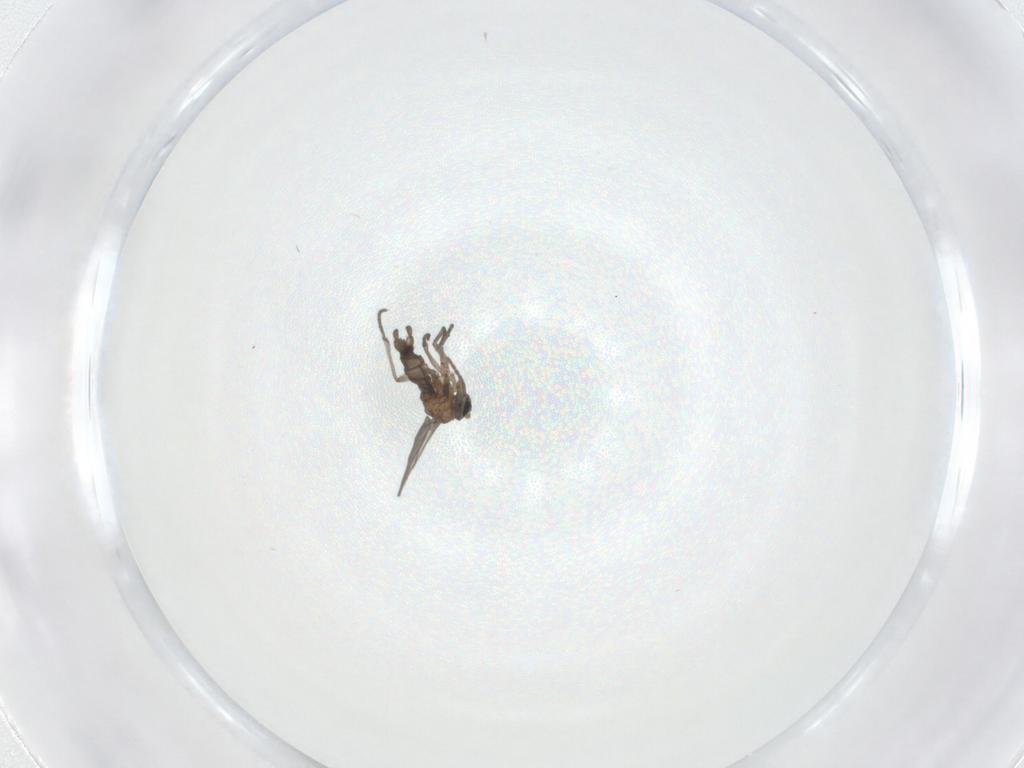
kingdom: Animalia
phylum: Arthropoda
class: Insecta
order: Diptera
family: Sciaridae
